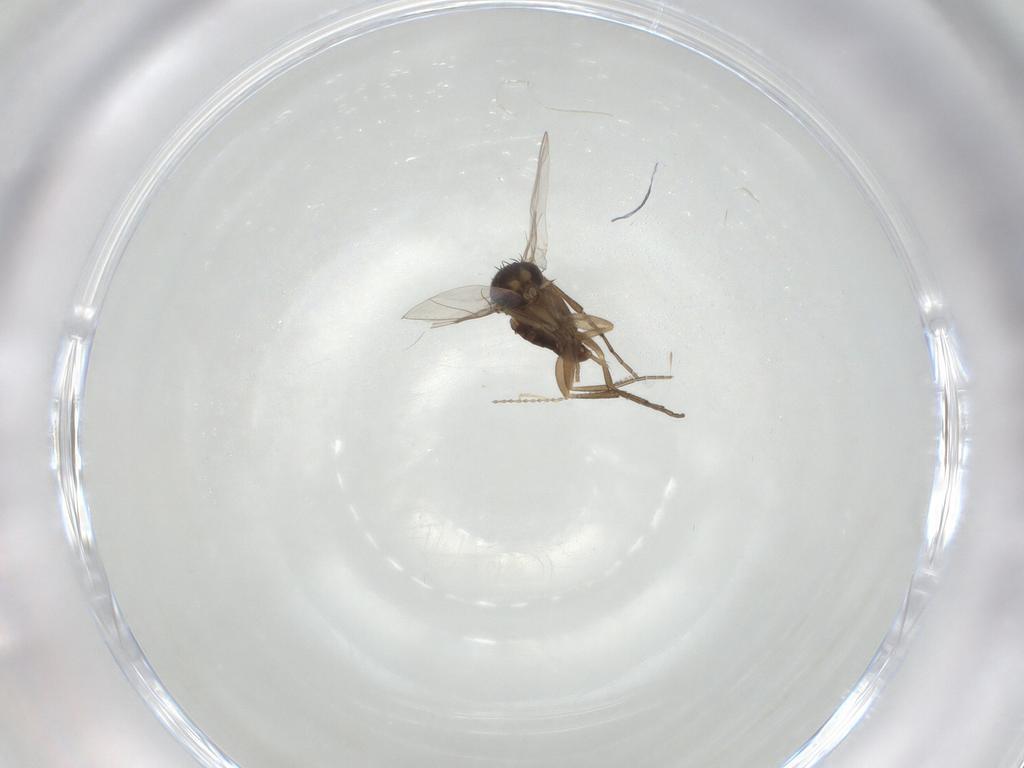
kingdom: Animalia
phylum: Arthropoda
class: Insecta
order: Diptera
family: Phoridae
